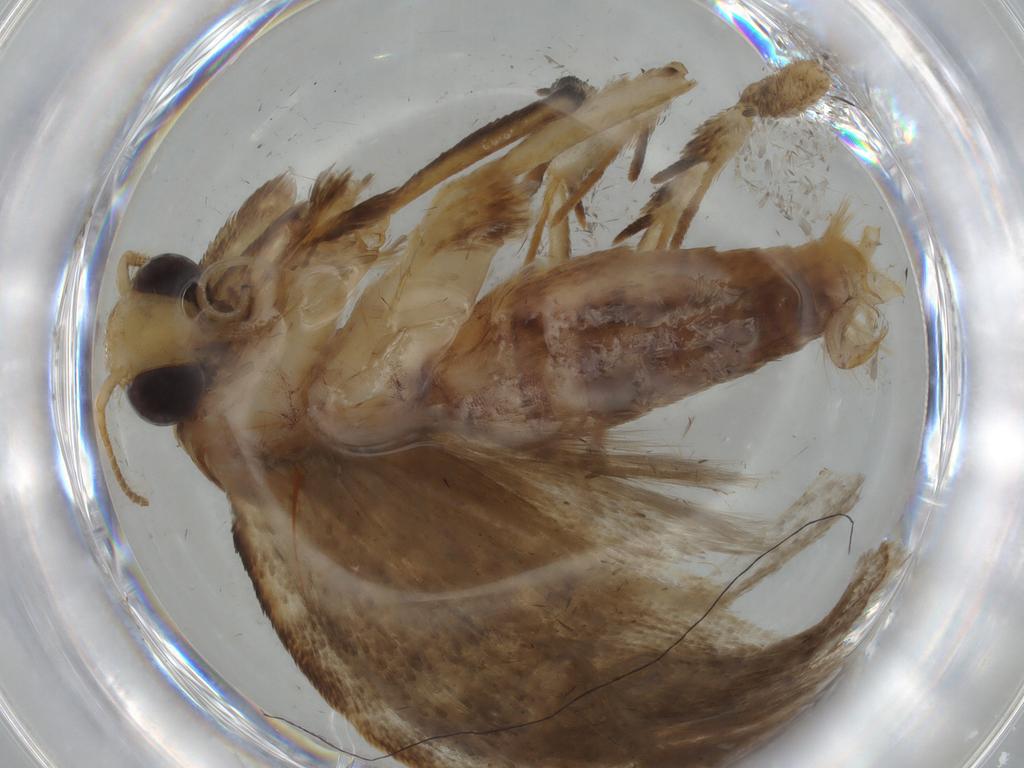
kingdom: Animalia
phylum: Arthropoda
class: Insecta
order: Lepidoptera
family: Oecophoridae
